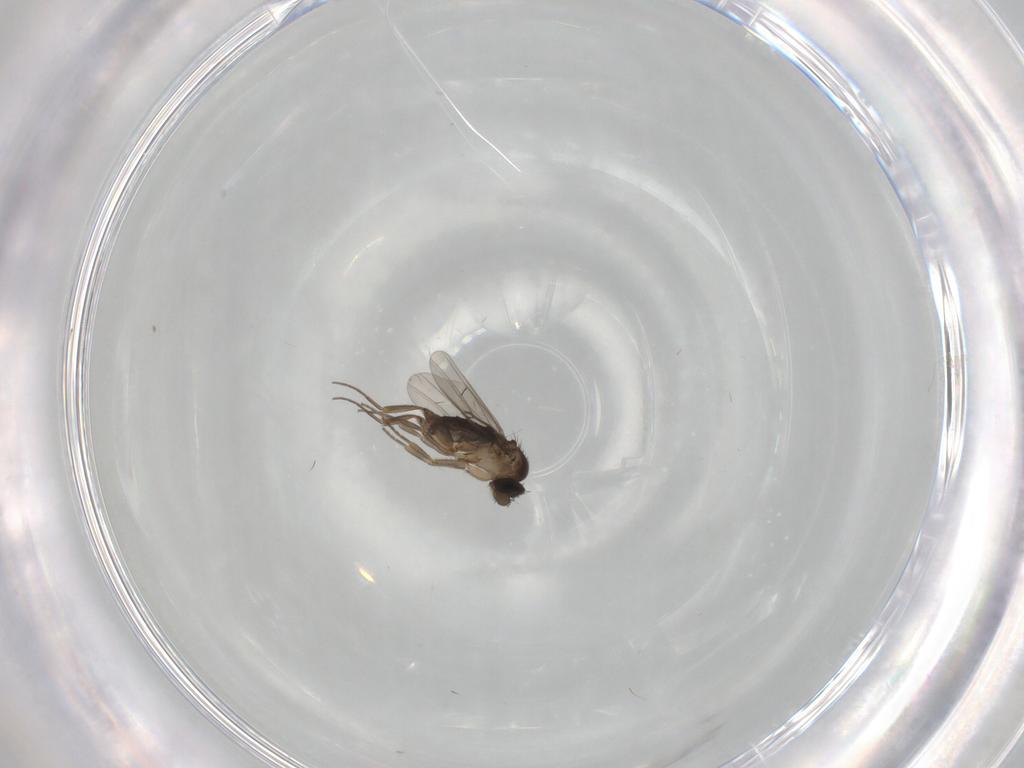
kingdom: Animalia
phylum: Arthropoda
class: Insecta
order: Diptera
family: Phoridae
